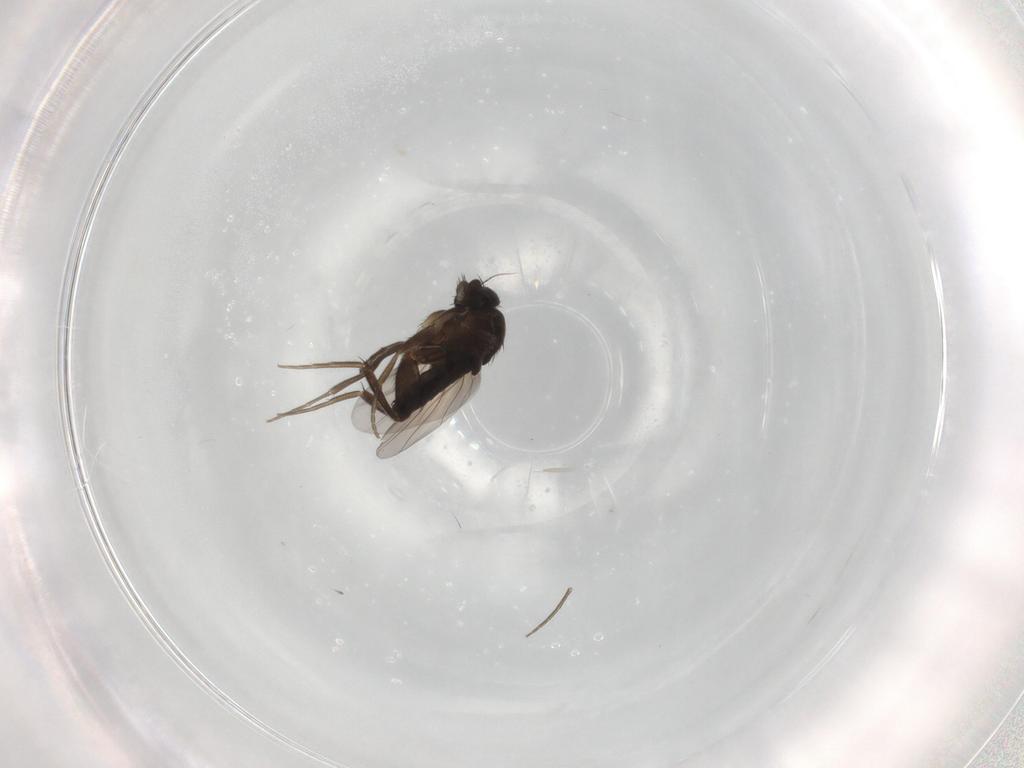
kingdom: Animalia
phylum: Arthropoda
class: Insecta
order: Diptera
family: Phoridae
